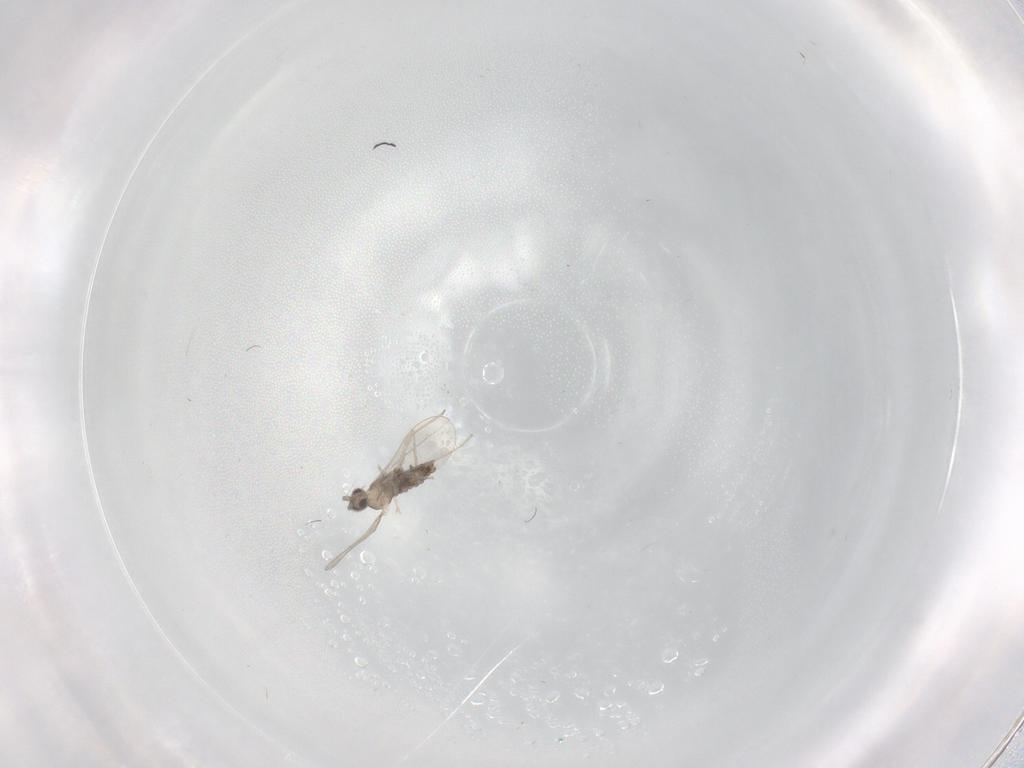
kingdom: Animalia
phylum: Arthropoda
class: Insecta
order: Diptera
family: Cecidomyiidae
